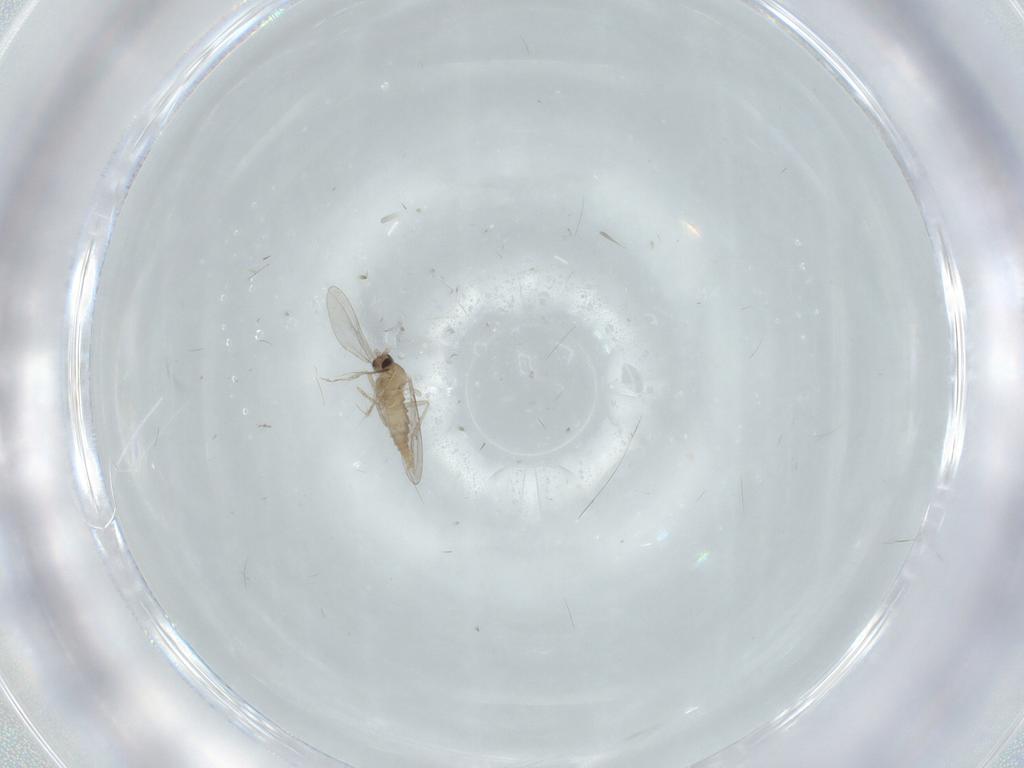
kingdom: Animalia
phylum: Arthropoda
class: Insecta
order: Diptera
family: Cecidomyiidae
